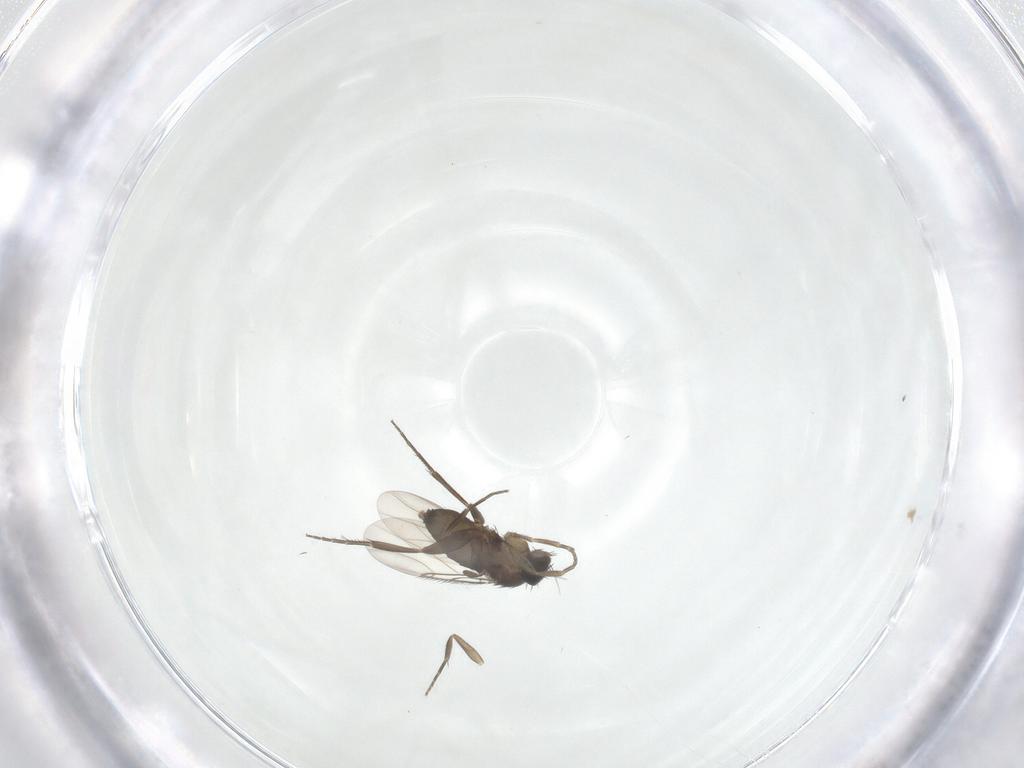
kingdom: Animalia
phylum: Arthropoda
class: Insecta
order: Diptera
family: Phoridae
